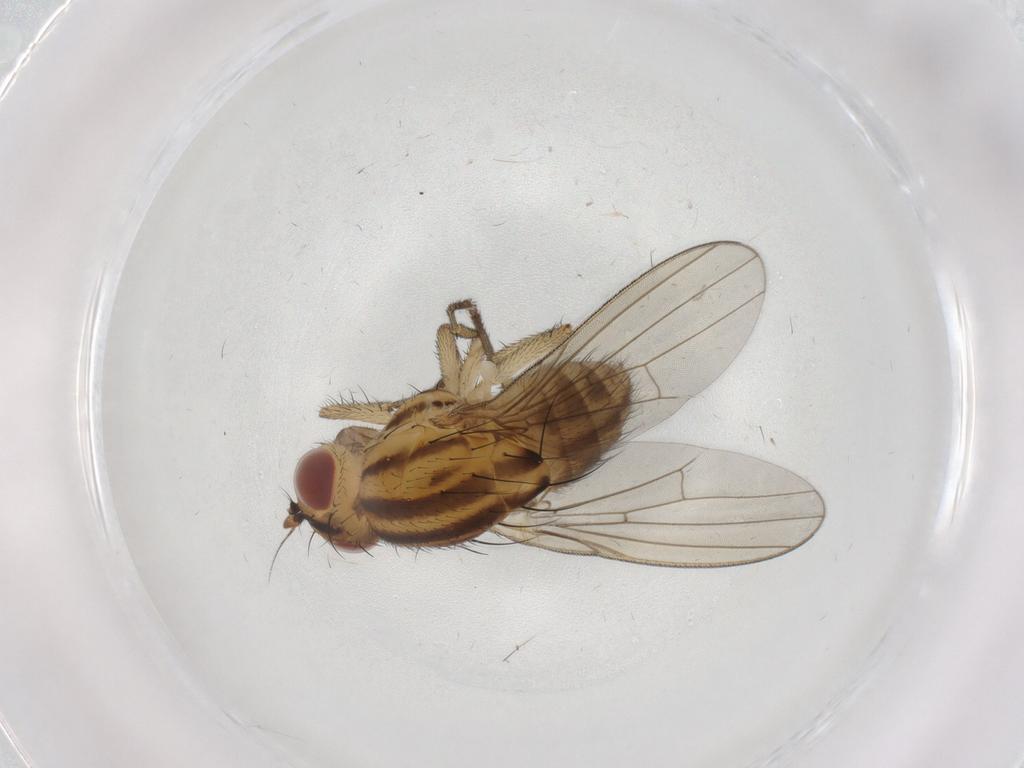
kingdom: Animalia
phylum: Arthropoda
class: Insecta
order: Diptera
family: Chironomidae
